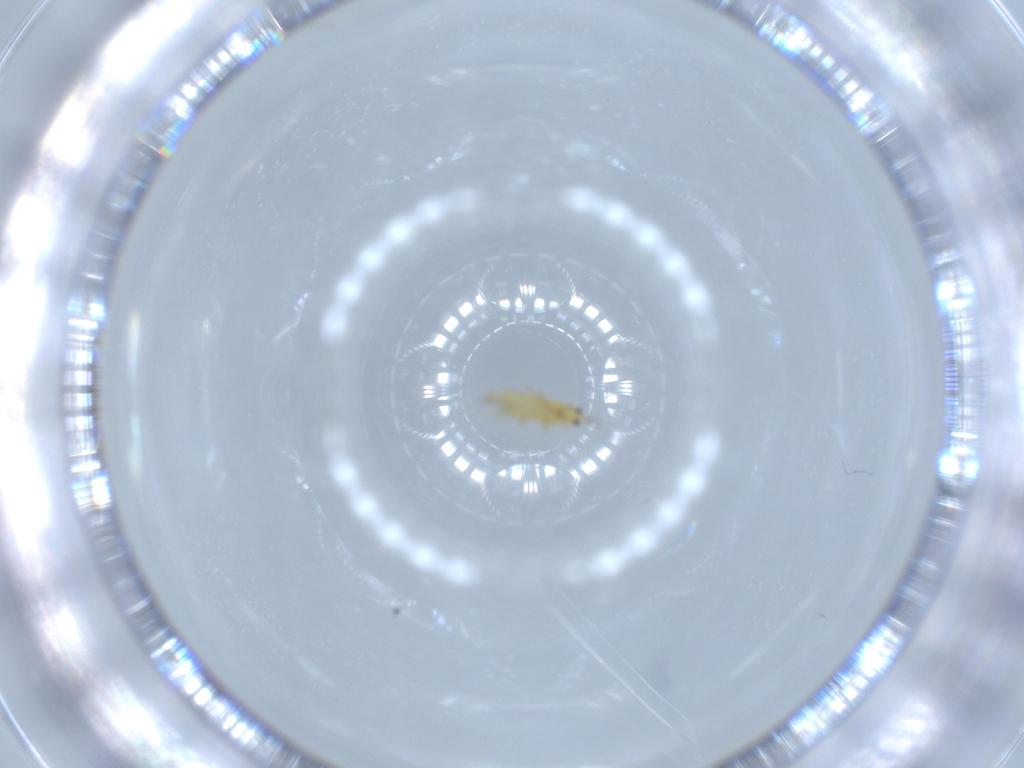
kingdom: Animalia
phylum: Arthropoda
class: Insecta
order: Thysanoptera
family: Thripidae
